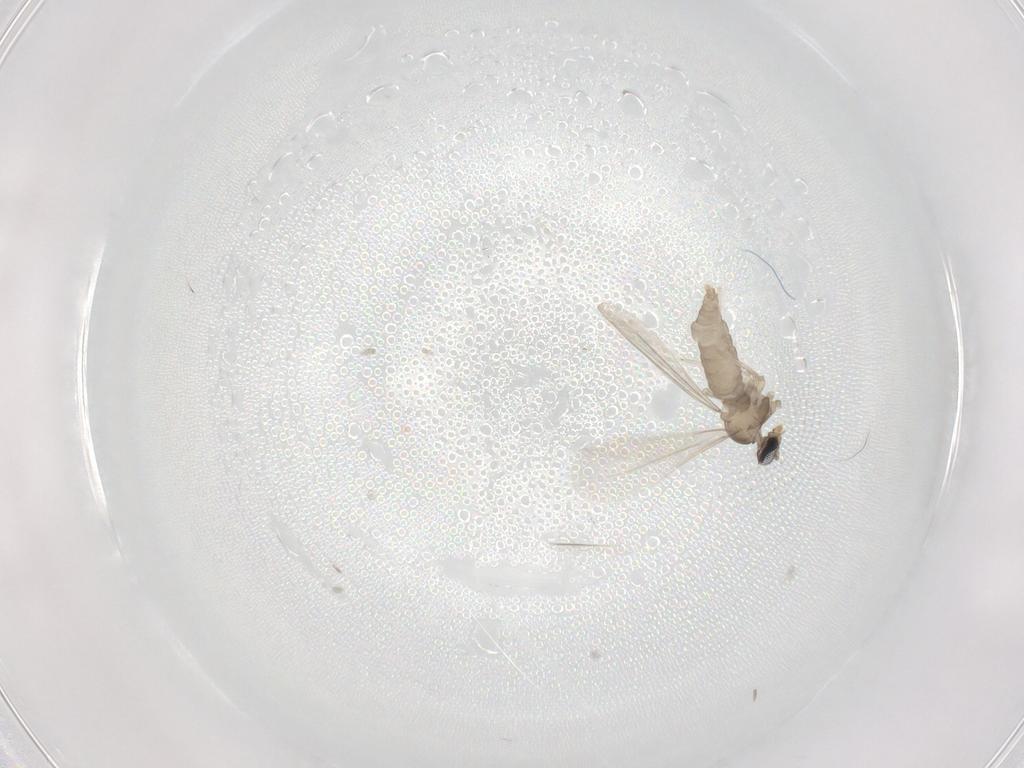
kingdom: Animalia
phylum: Arthropoda
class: Insecta
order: Diptera
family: Cecidomyiidae
